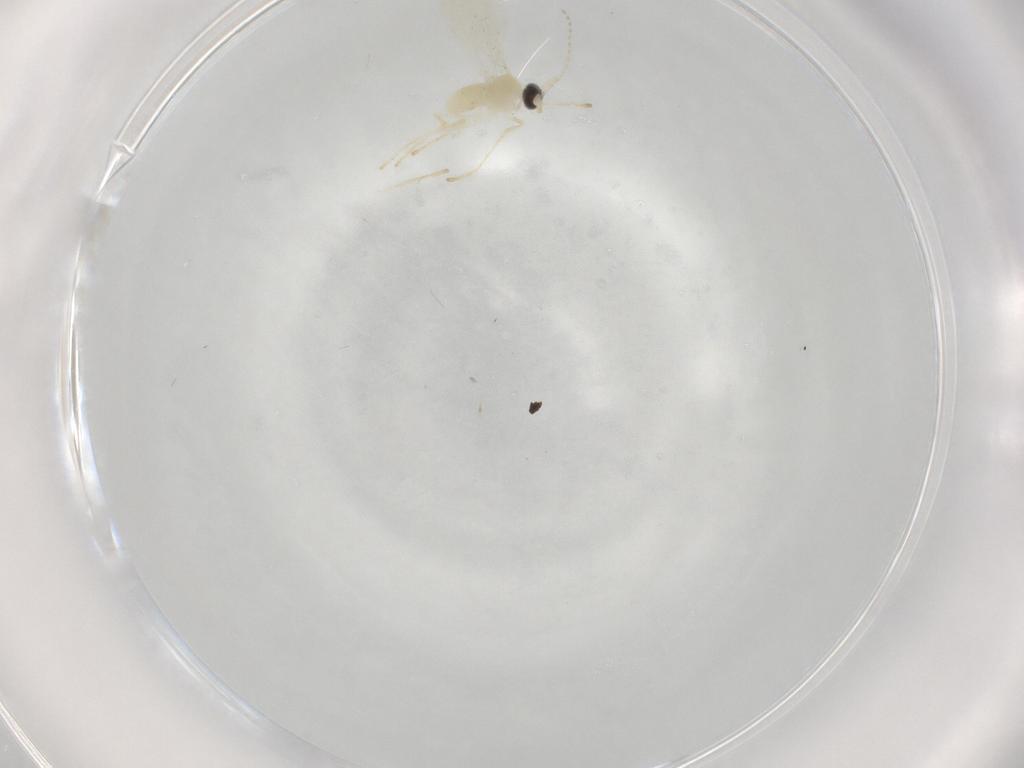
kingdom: Animalia
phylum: Arthropoda
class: Insecta
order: Diptera
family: Cecidomyiidae
